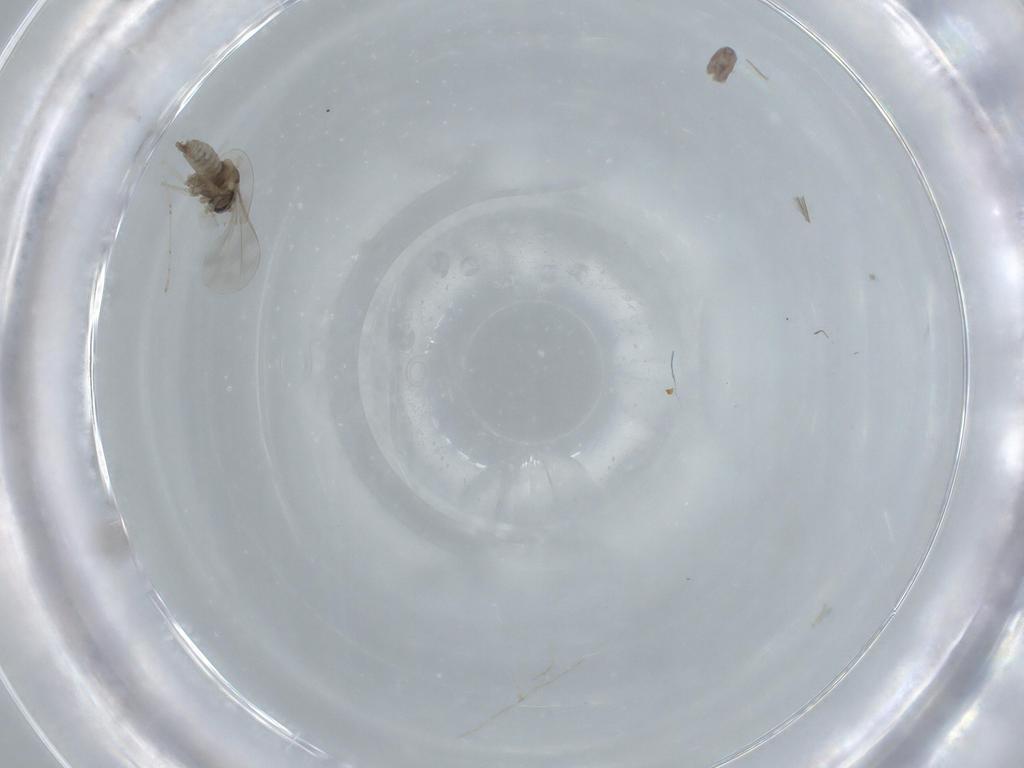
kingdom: Animalia
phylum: Arthropoda
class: Insecta
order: Diptera
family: Cecidomyiidae
